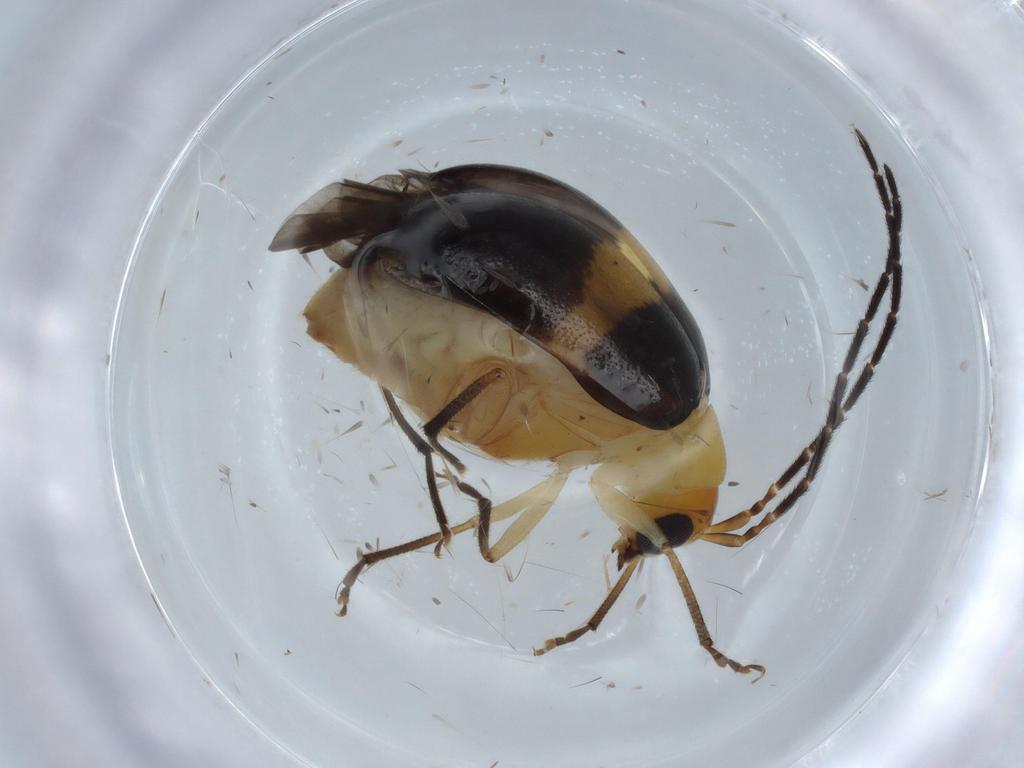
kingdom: Animalia
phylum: Arthropoda
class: Insecta
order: Coleoptera
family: Chrysomelidae
